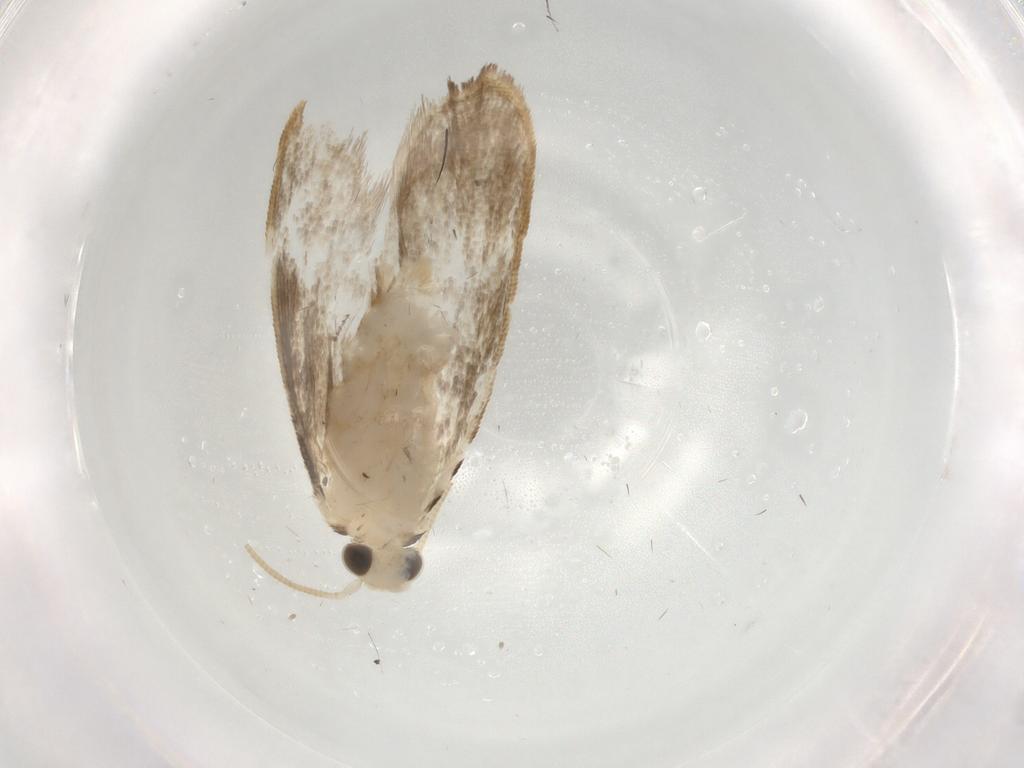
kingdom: Animalia
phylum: Arthropoda
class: Insecta
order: Lepidoptera
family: Dryadaulidae
